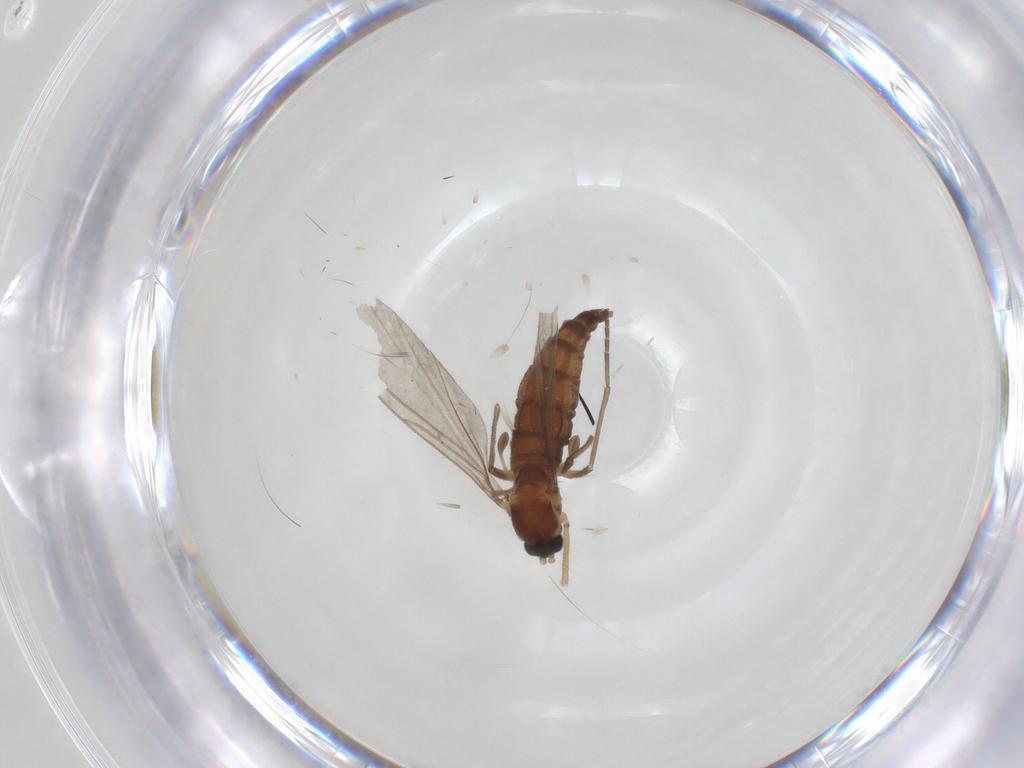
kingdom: Animalia
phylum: Arthropoda
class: Insecta
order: Diptera
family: Sciaridae
